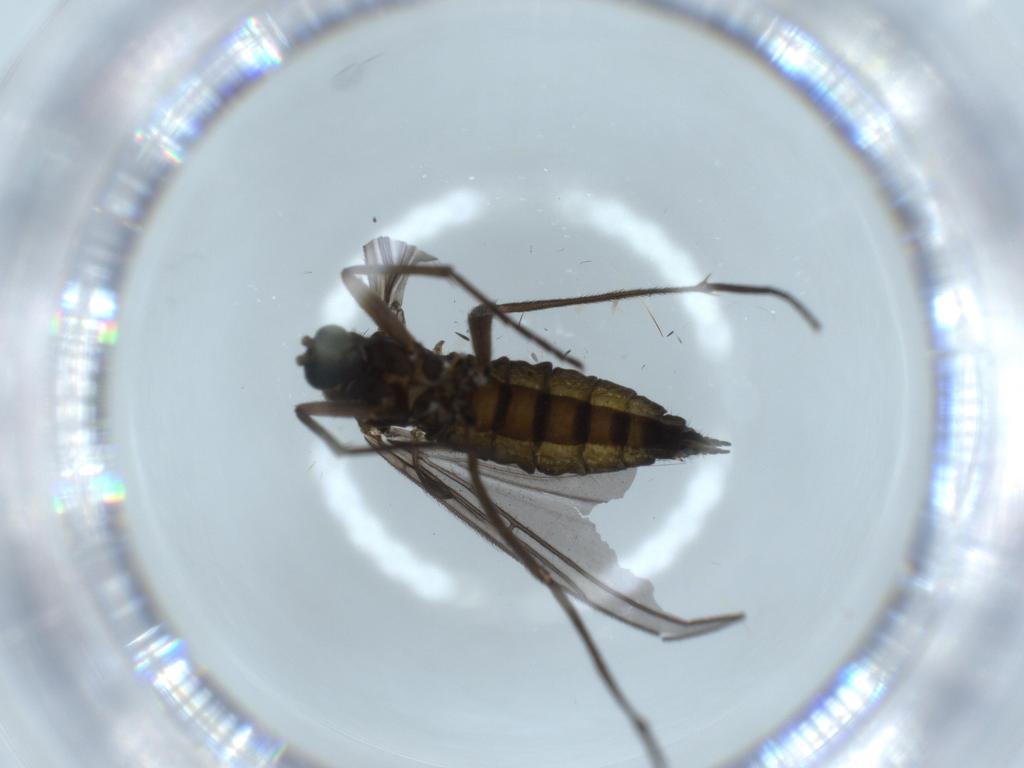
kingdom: Animalia
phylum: Arthropoda
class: Insecta
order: Diptera
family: Sciaridae
